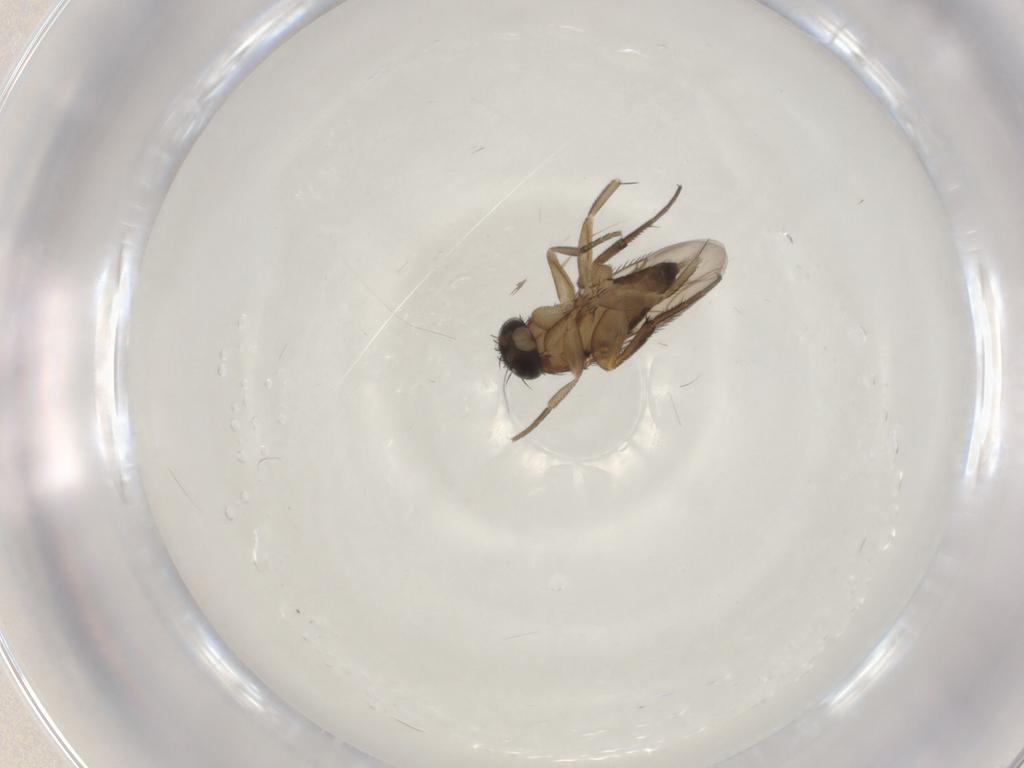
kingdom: Animalia
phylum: Arthropoda
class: Insecta
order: Diptera
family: Phoridae
